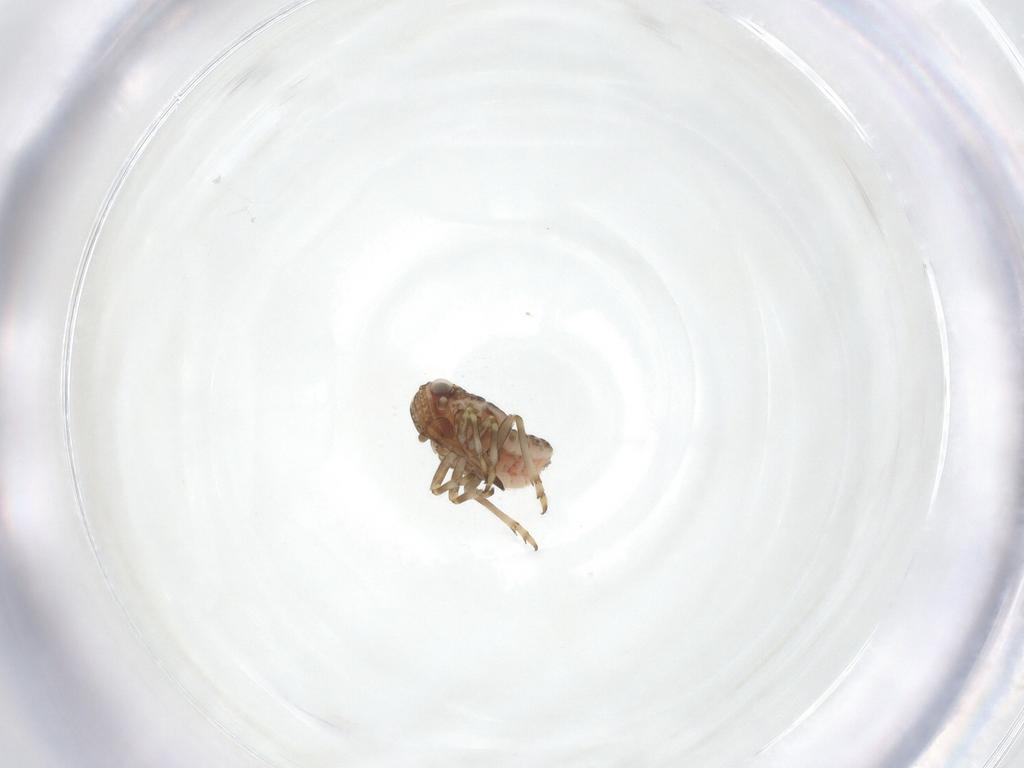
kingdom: Animalia
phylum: Arthropoda
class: Insecta
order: Hemiptera
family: Tropiduchidae
